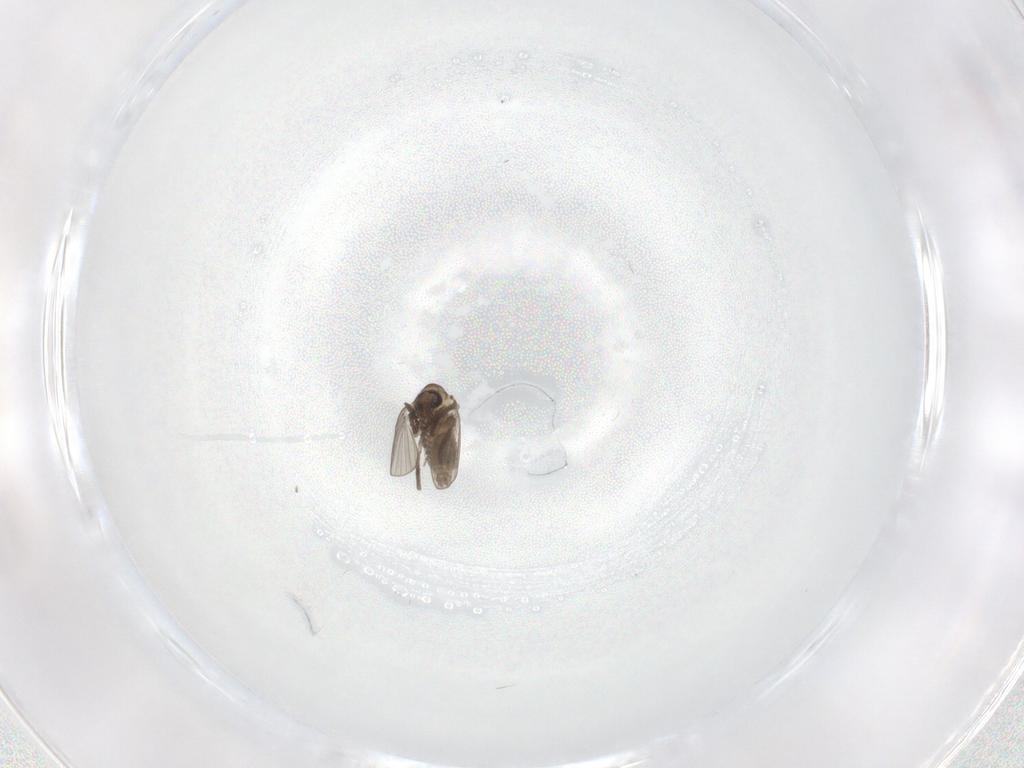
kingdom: Animalia
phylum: Arthropoda
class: Insecta
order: Diptera
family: Psychodidae
